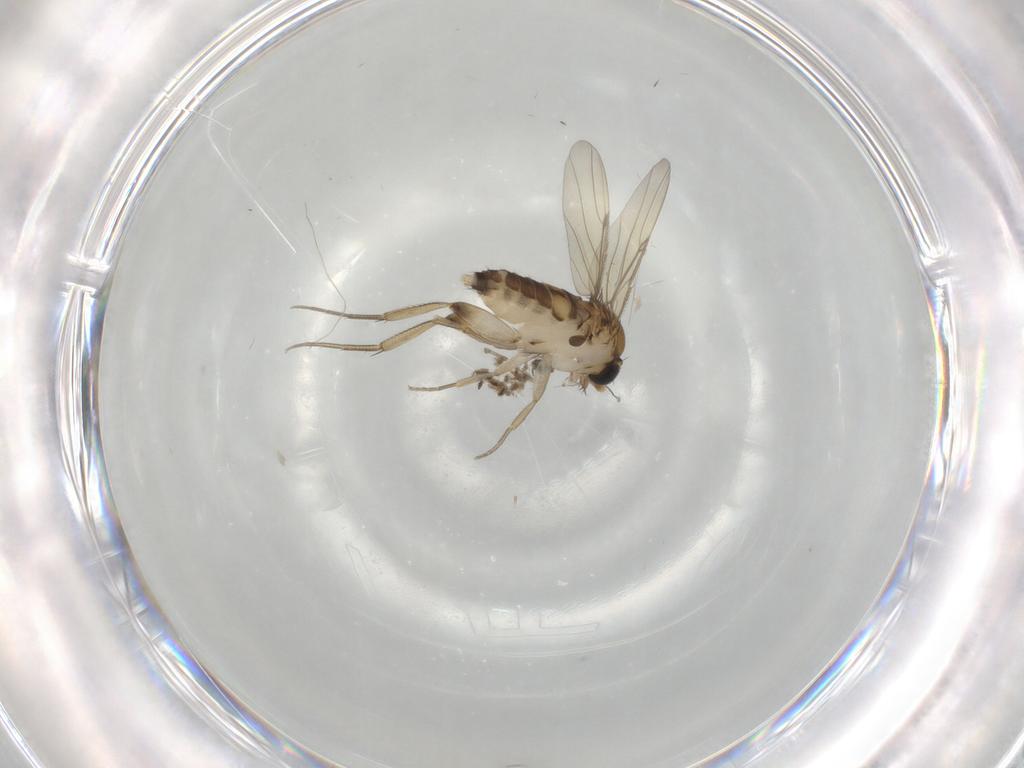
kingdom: Animalia
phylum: Arthropoda
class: Insecta
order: Diptera
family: Phoridae
